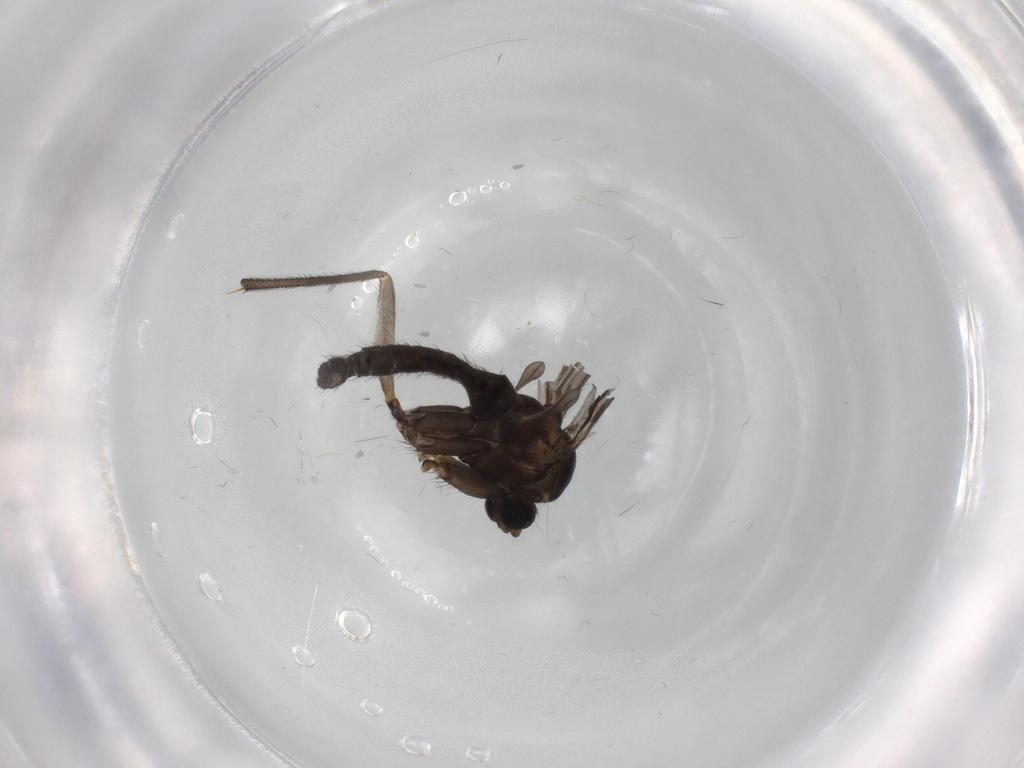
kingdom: Animalia
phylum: Arthropoda
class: Insecta
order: Diptera
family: Sciaridae
